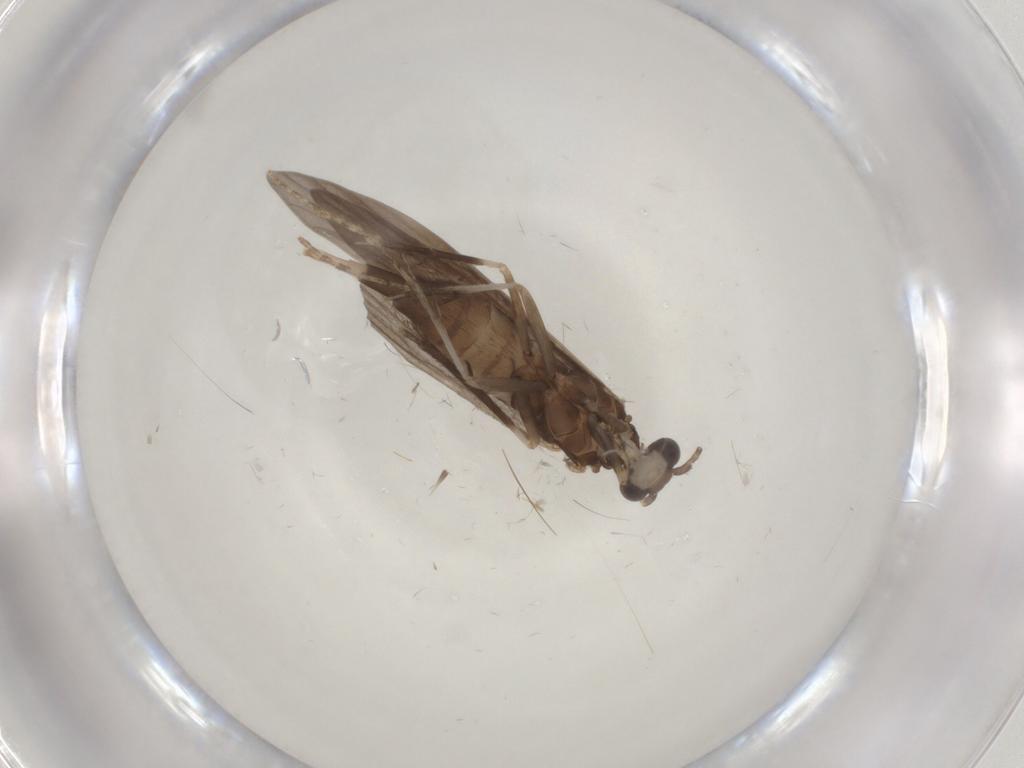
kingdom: Animalia
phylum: Arthropoda
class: Insecta
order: Trichoptera
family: Xiphocentronidae
